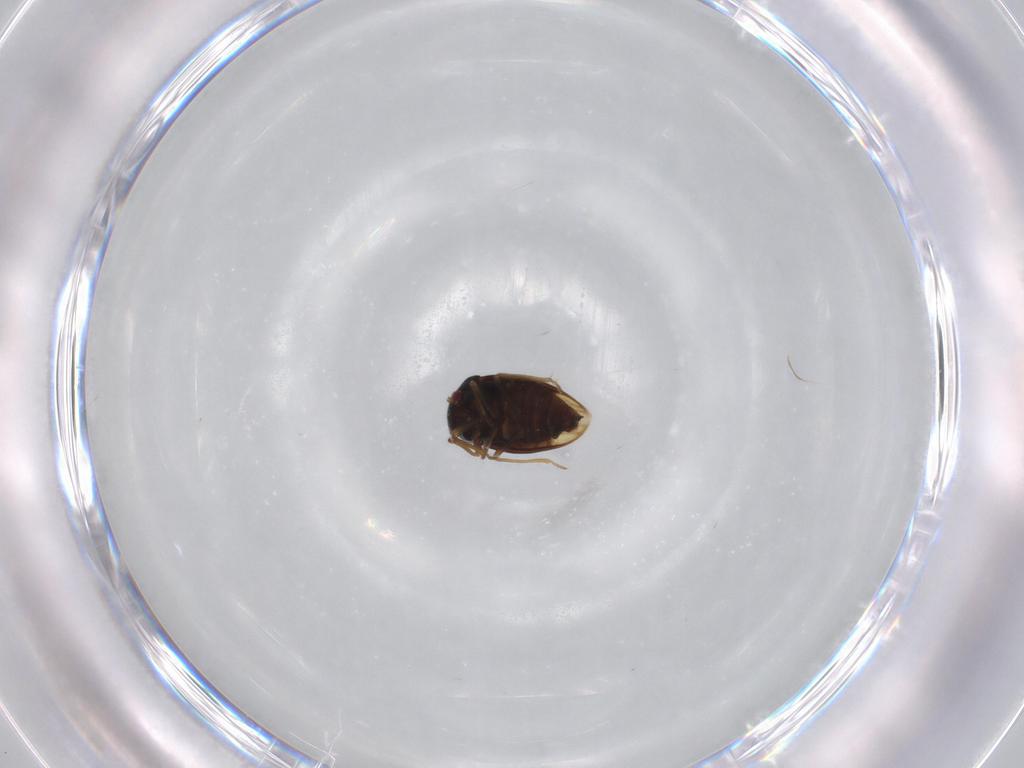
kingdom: Animalia
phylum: Arthropoda
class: Insecta
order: Hemiptera
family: Schizopteridae
